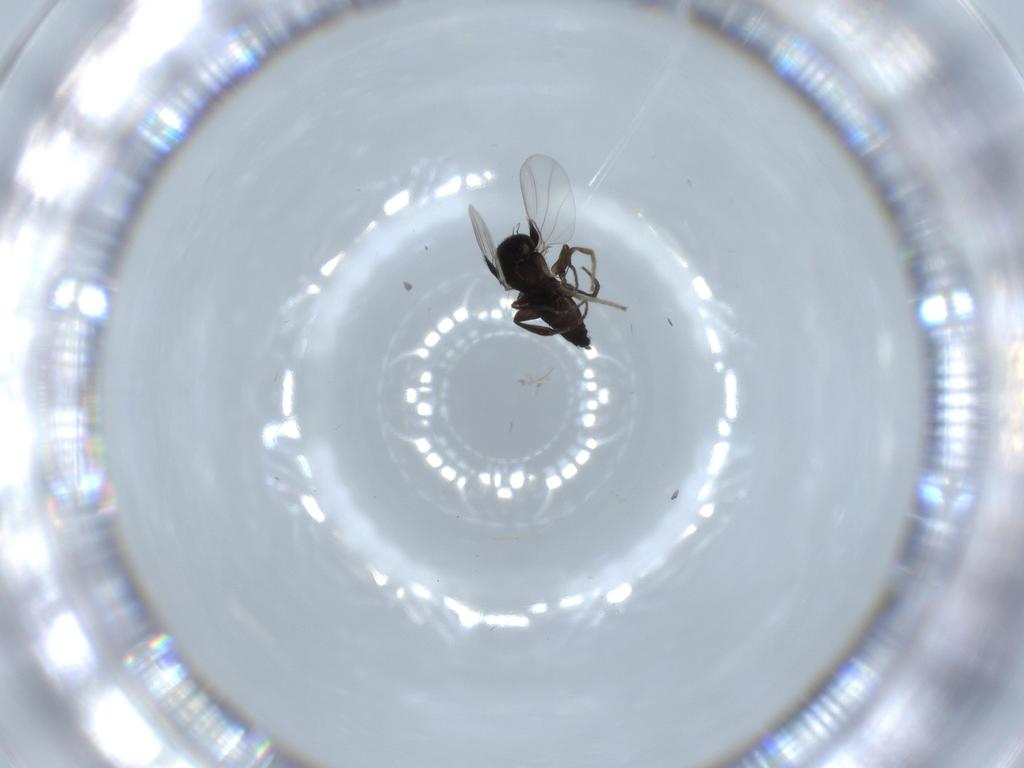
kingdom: Animalia
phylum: Arthropoda
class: Insecta
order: Diptera
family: Phoridae
